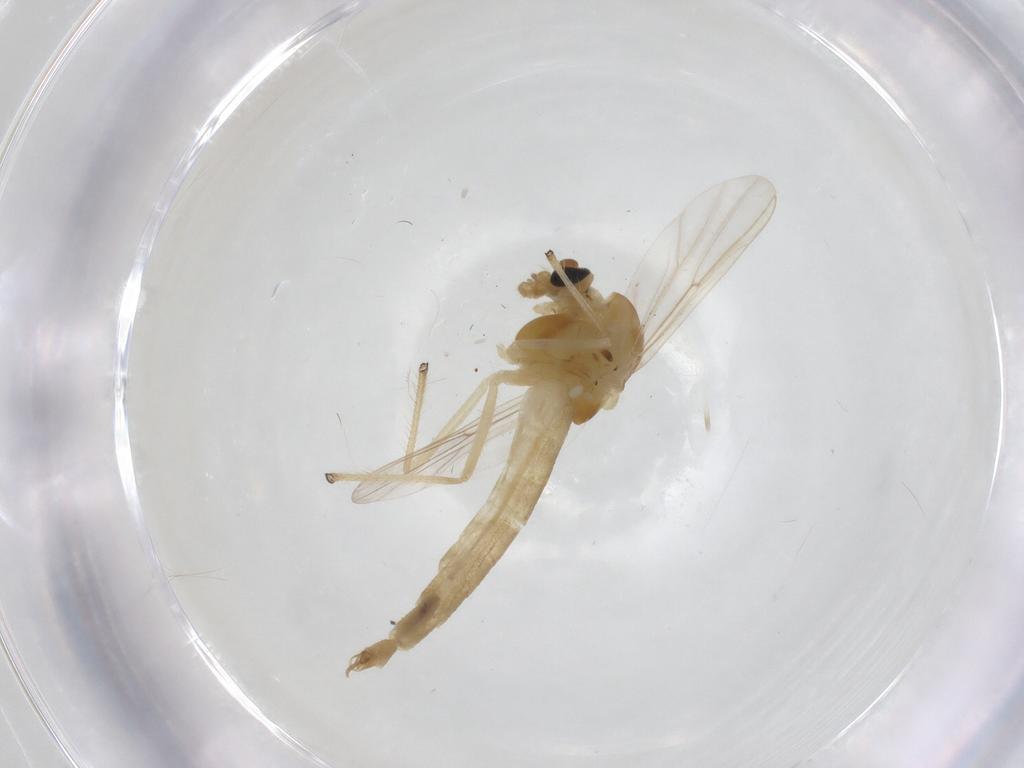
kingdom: Animalia
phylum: Arthropoda
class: Insecta
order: Diptera
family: Chironomidae
